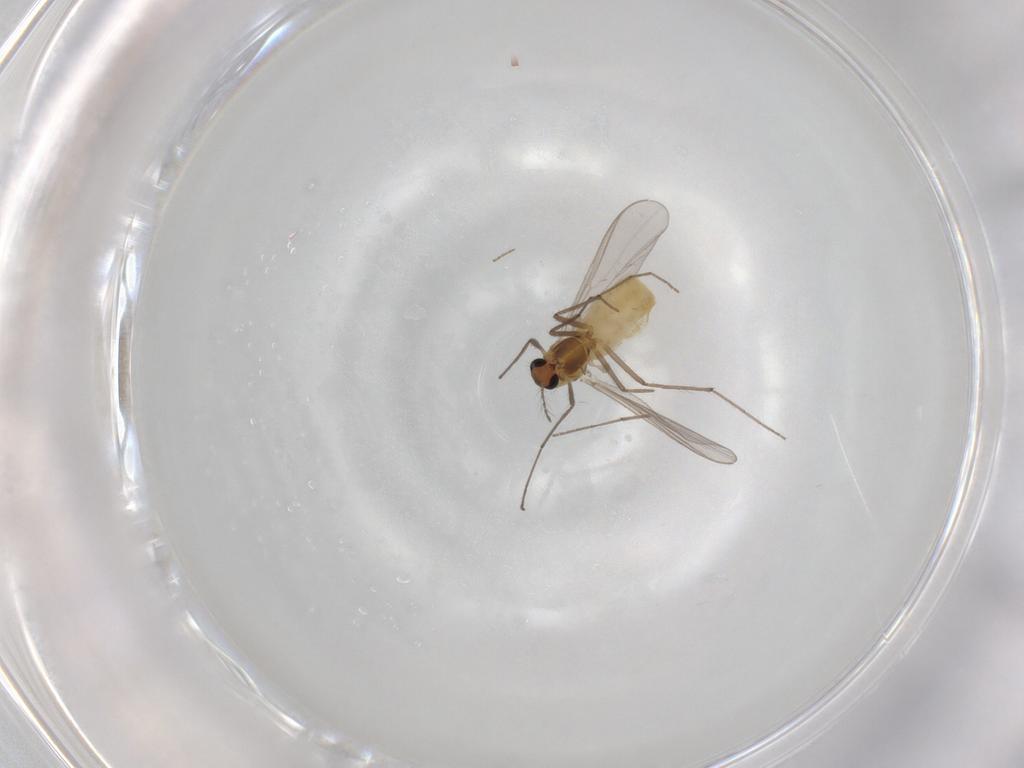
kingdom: Animalia
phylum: Arthropoda
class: Insecta
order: Diptera
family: Chironomidae
